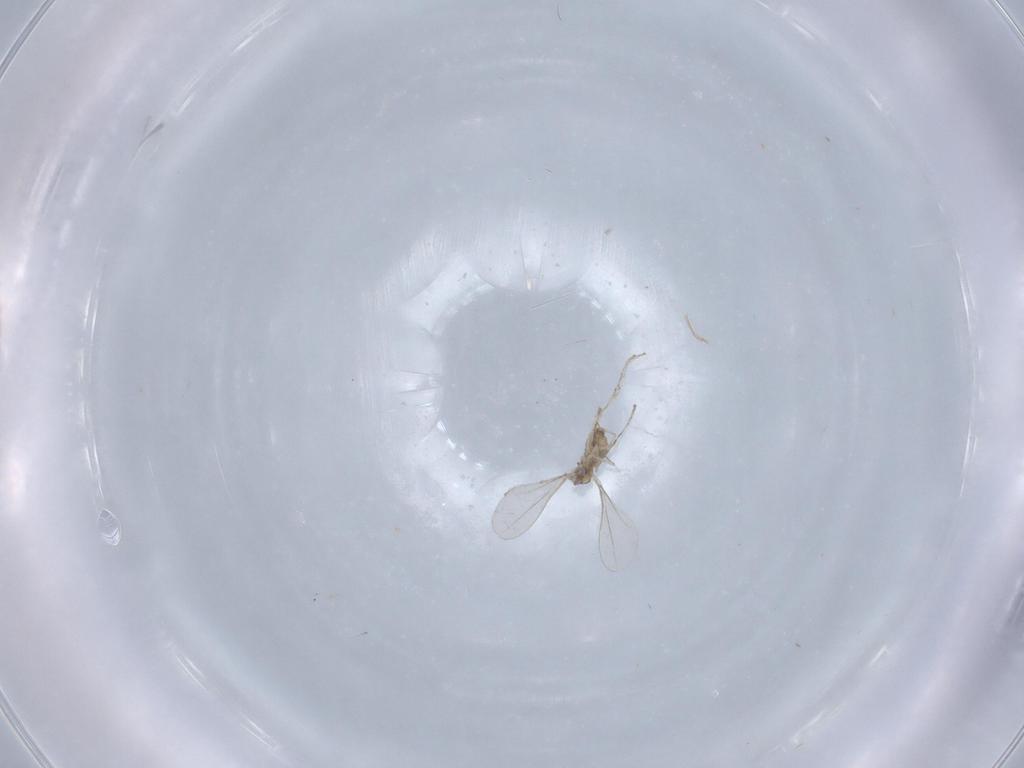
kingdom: Animalia
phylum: Arthropoda
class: Insecta
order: Diptera
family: Cecidomyiidae
